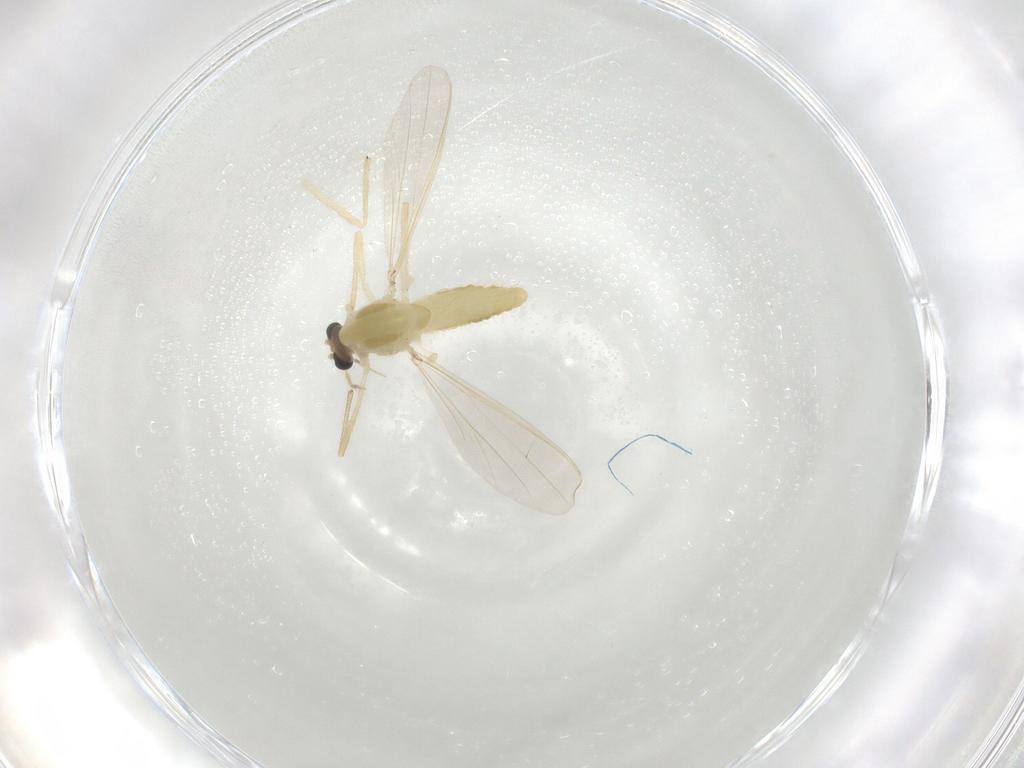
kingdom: Animalia
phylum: Arthropoda
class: Insecta
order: Diptera
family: Chironomidae
